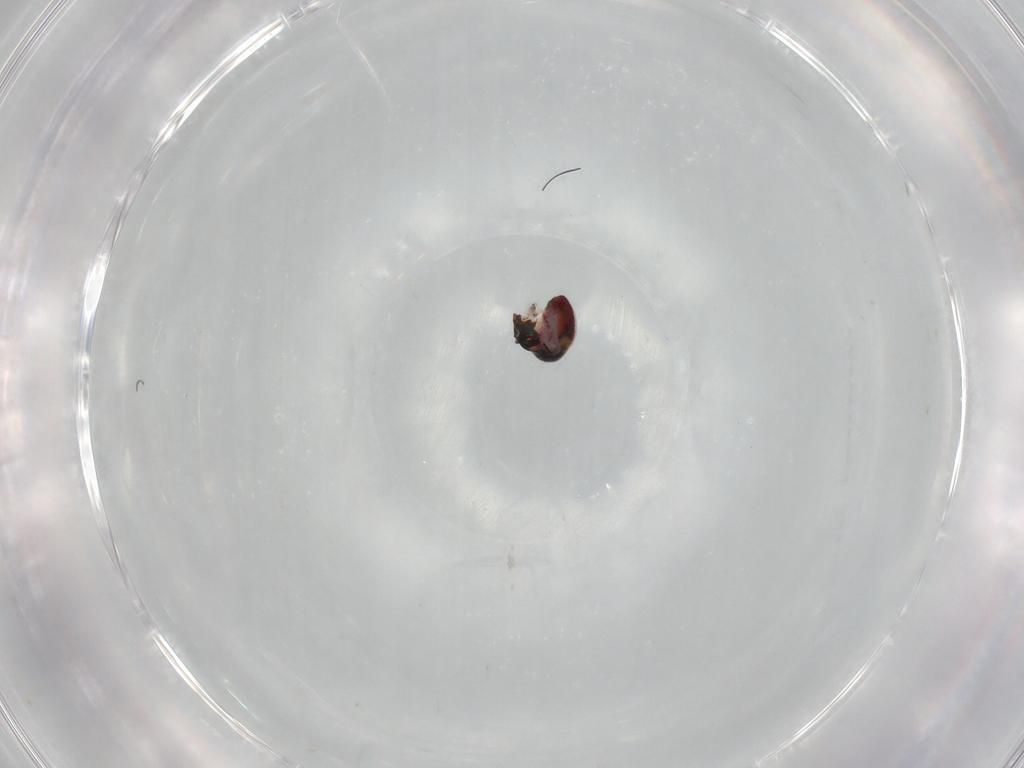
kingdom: Animalia
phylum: Arthropoda
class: Insecta
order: Diptera
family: Dolichopodidae
